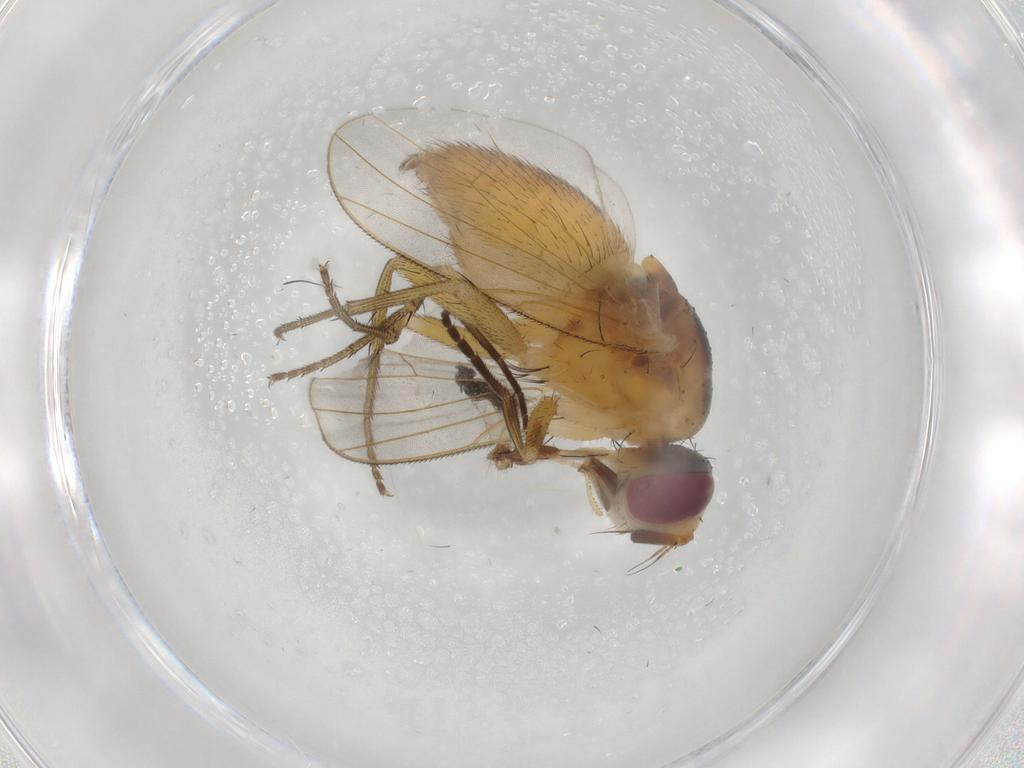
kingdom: Animalia
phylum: Arthropoda
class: Insecta
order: Diptera
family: Muscidae
